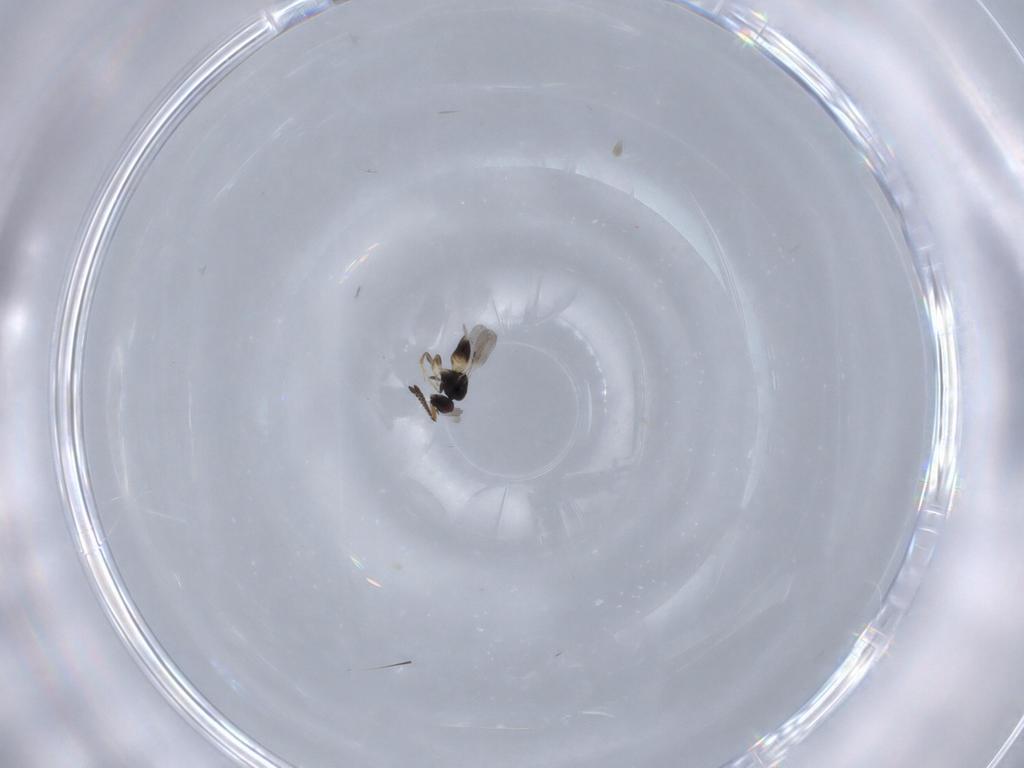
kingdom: Animalia
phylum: Arthropoda
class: Insecta
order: Hymenoptera
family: Ceraphronidae
